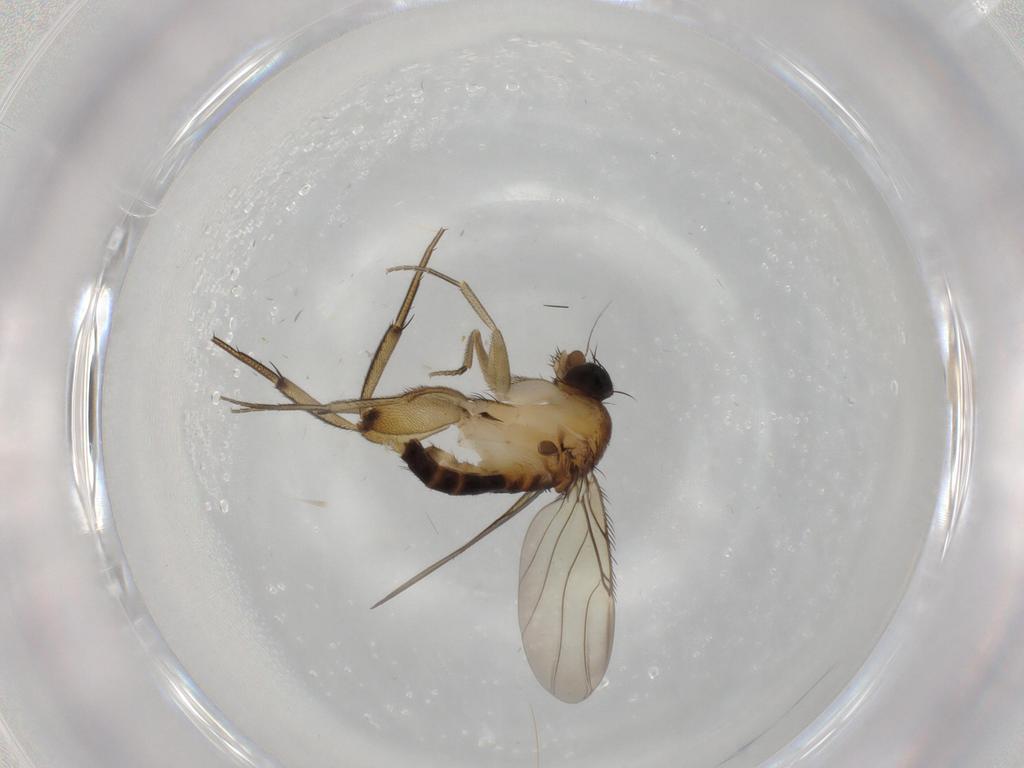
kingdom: Animalia
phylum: Arthropoda
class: Insecta
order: Diptera
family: Phoridae
